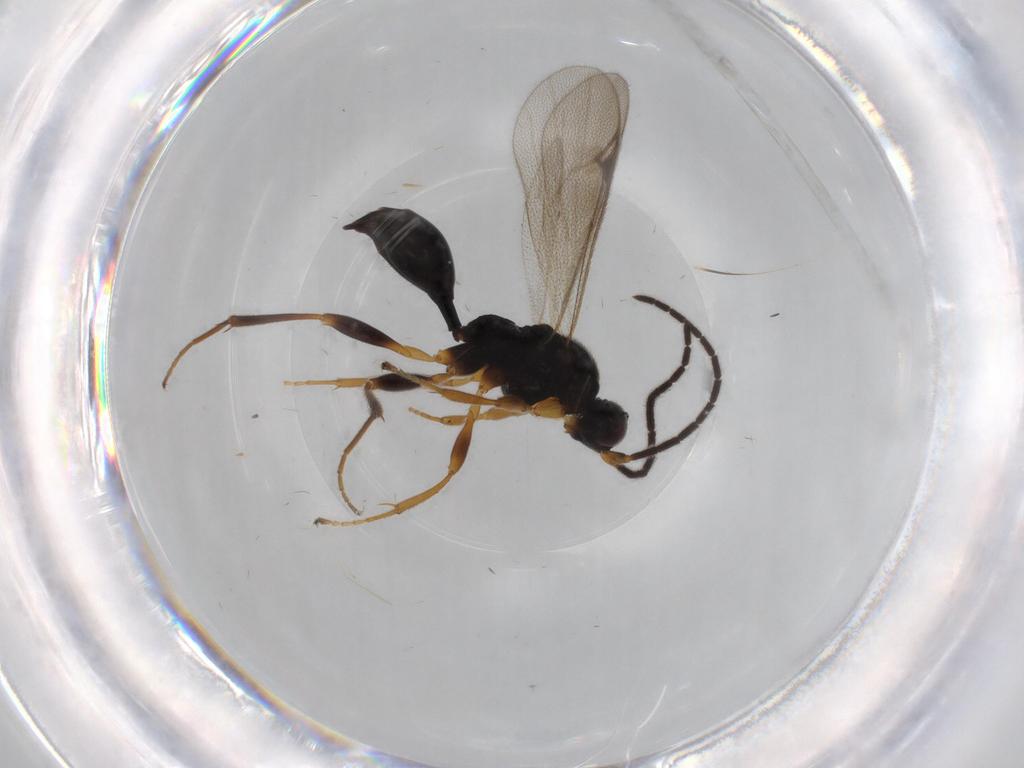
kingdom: Animalia
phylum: Arthropoda
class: Insecta
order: Hymenoptera
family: Proctotrupidae
